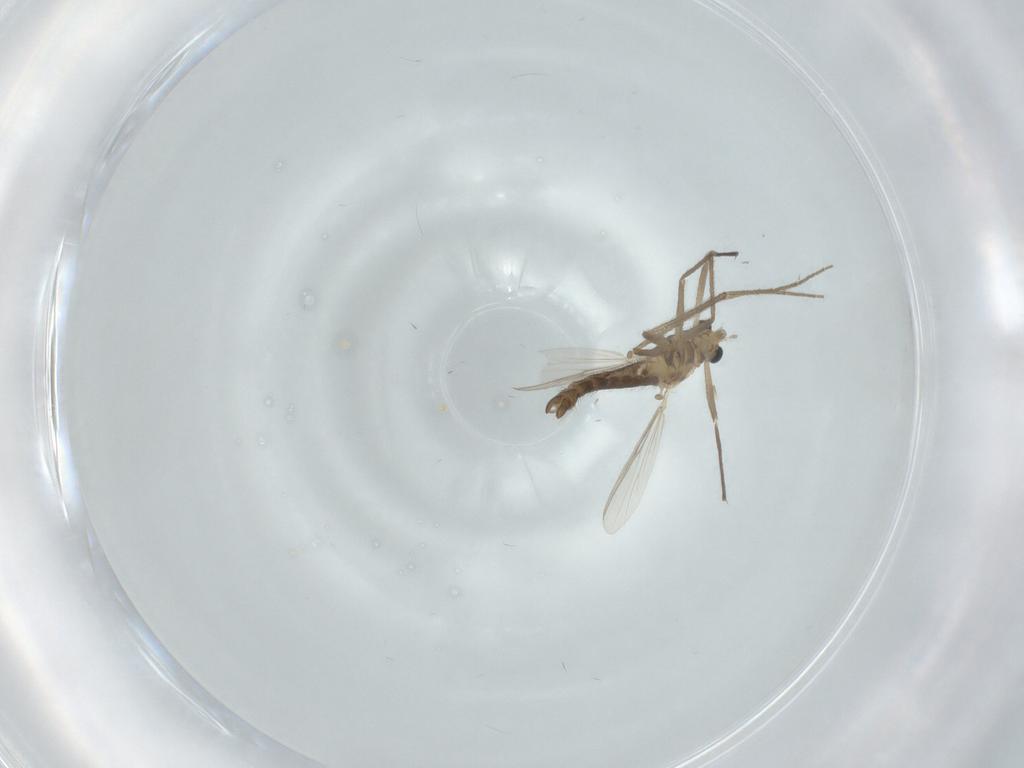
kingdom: Animalia
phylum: Arthropoda
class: Insecta
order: Diptera
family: Chironomidae
